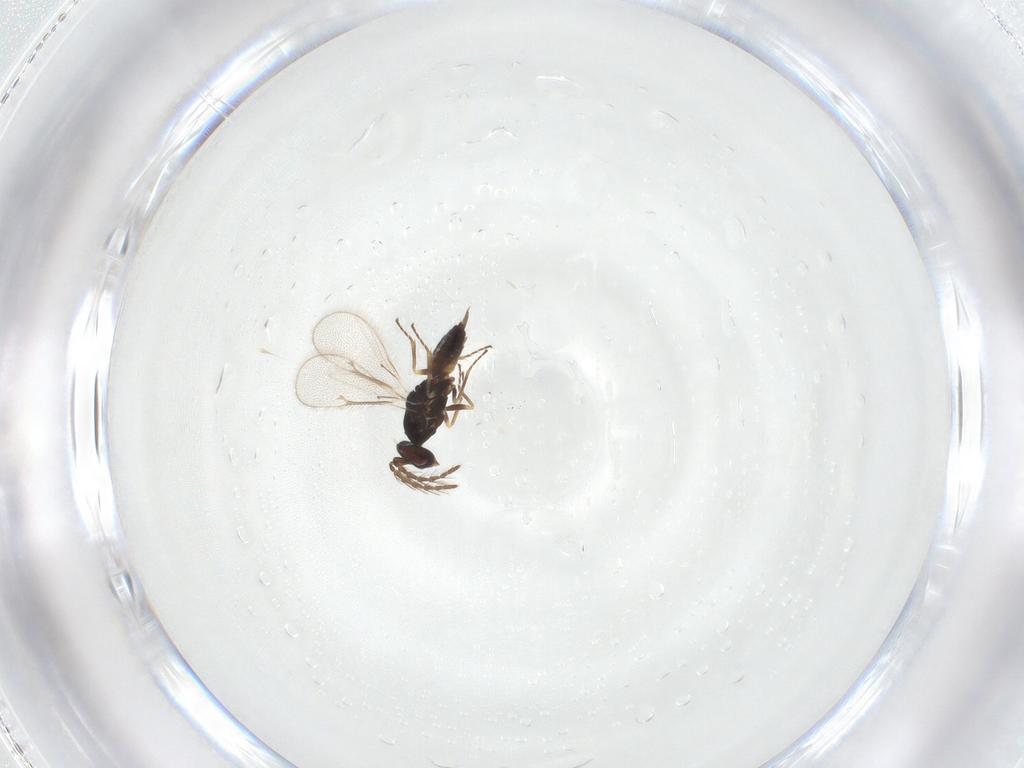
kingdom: Animalia
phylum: Arthropoda
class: Insecta
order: Hymenoptera
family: Eulophidae
